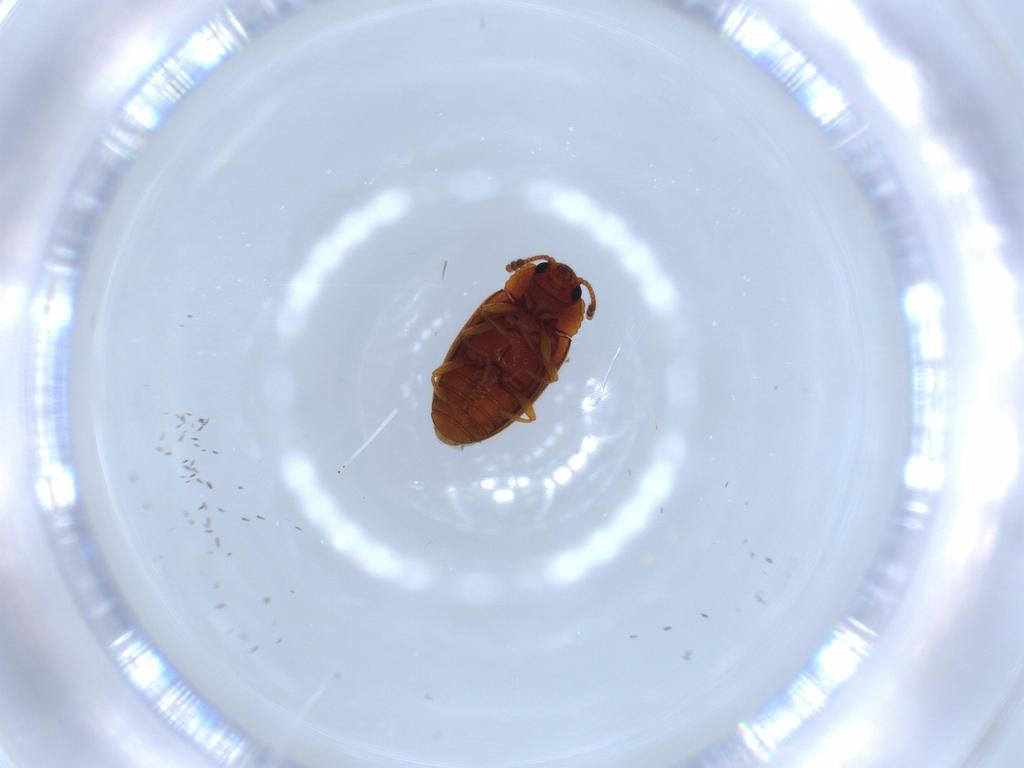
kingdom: Animalia
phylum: Arthropoda
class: Insecta
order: Coleoptera
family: Erotylidae
